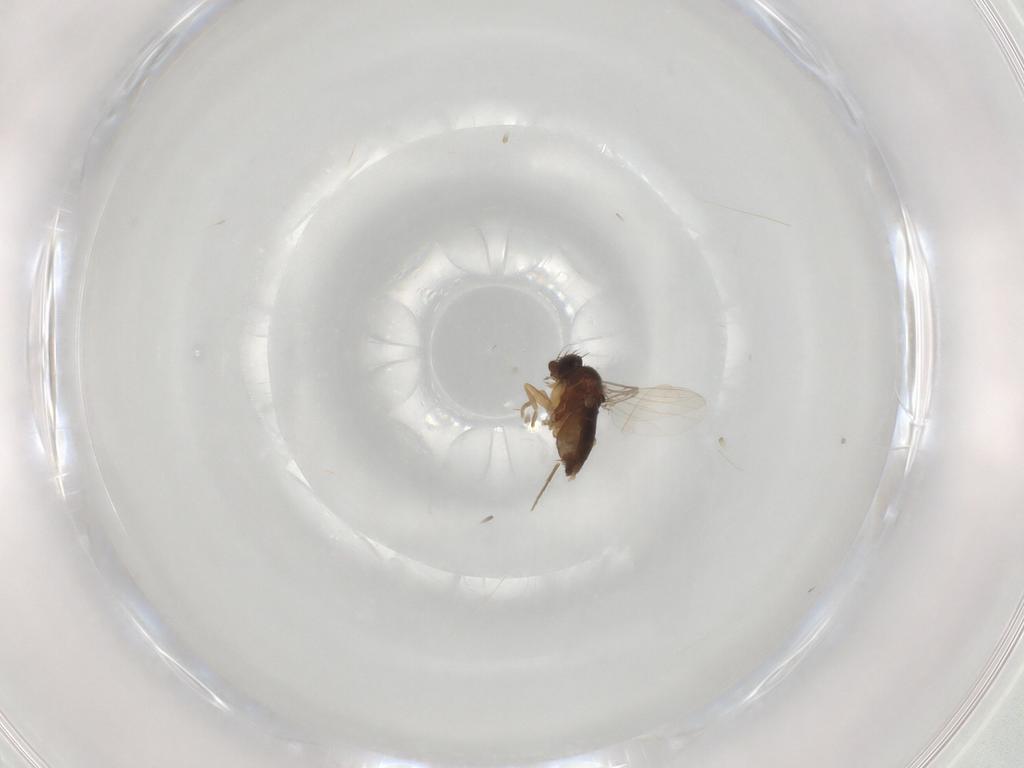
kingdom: Animalia
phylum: Arthropoda
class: Insecta
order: Diptera
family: Phoridae
